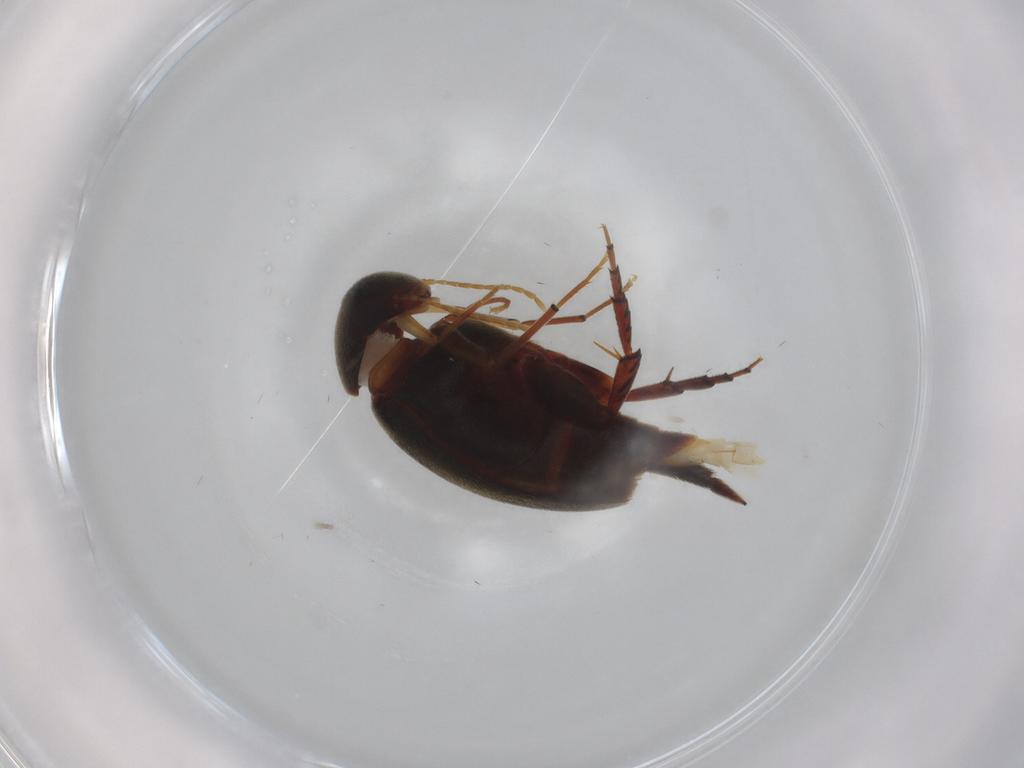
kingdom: Animalia
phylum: Arthropoda
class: Insecta
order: Coleoptera
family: Mordellidae
